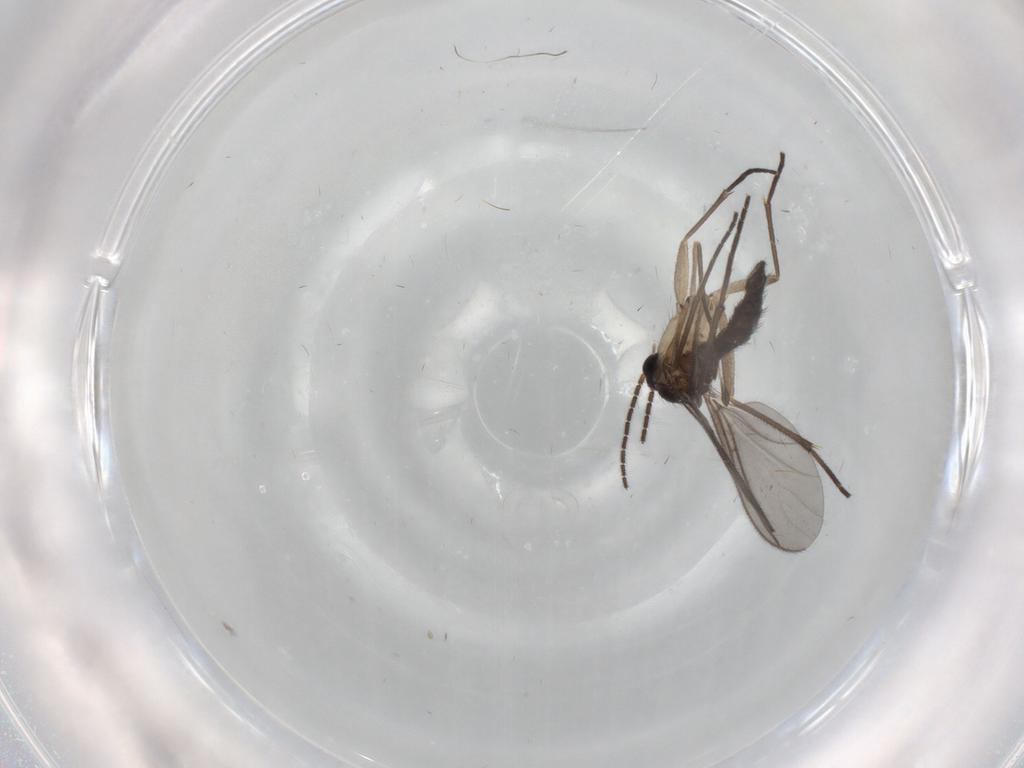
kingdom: Animalia
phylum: Arthropoda
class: Insecta
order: Diptera
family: Sciaridae
